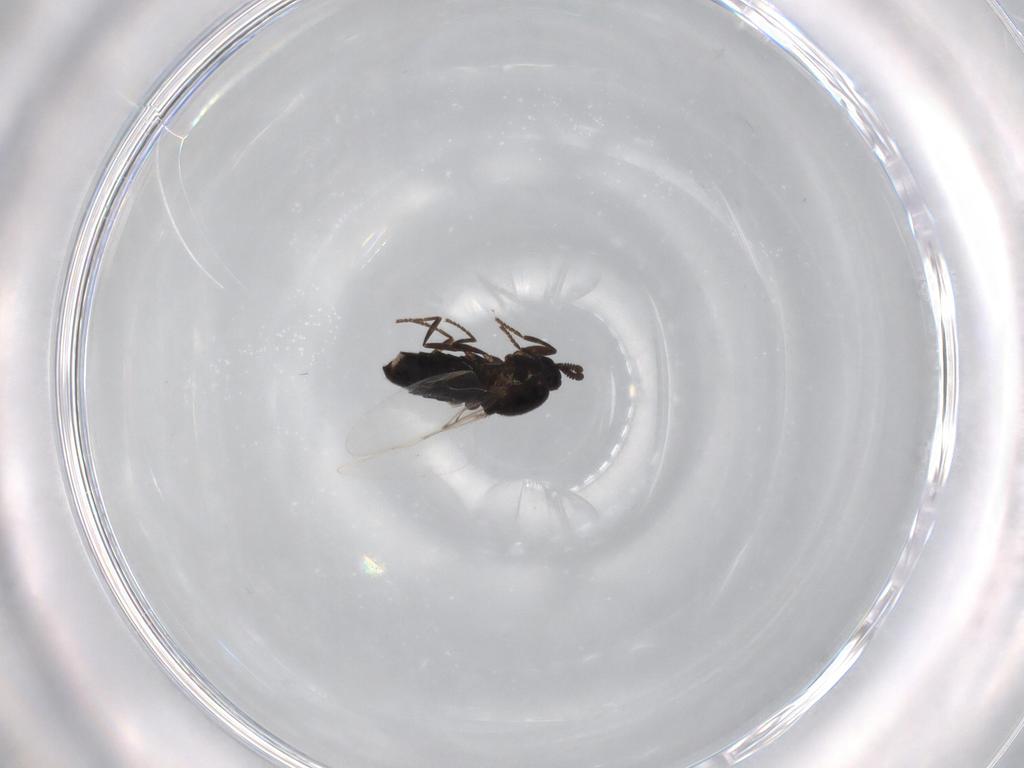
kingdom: Animalia
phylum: Arthropoda
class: Insecta
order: Diptera
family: Scatopsidae
